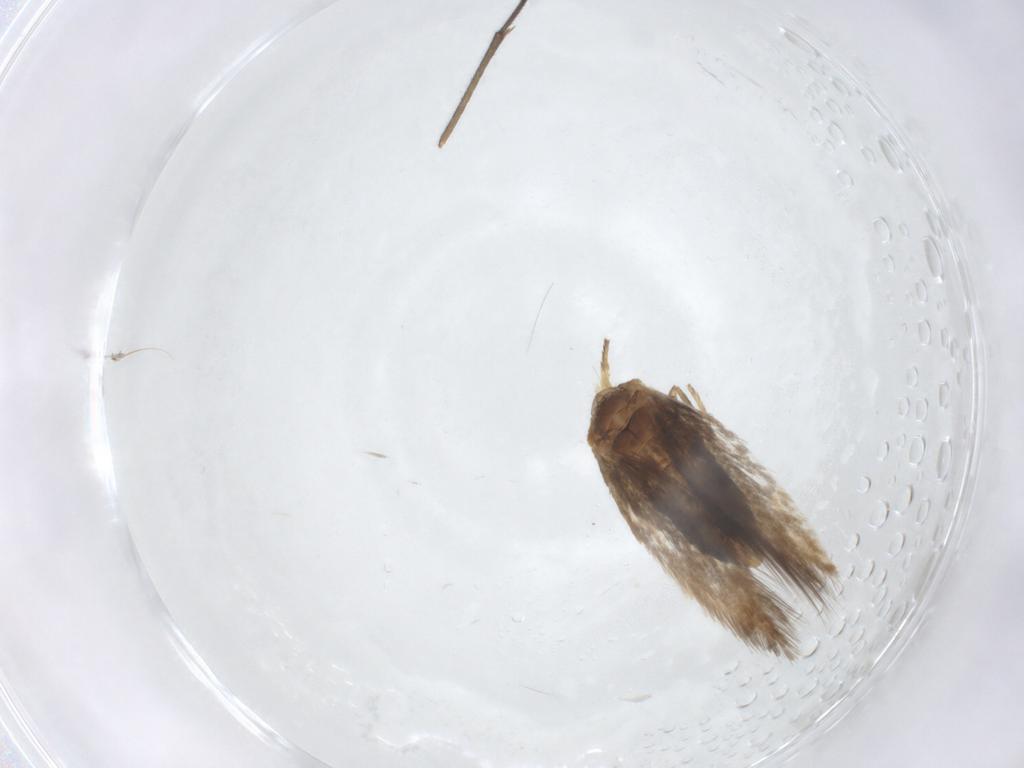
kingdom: Animalia
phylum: Arthropoda
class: Insecta
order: Lepidoptera
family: Nepticulidae
